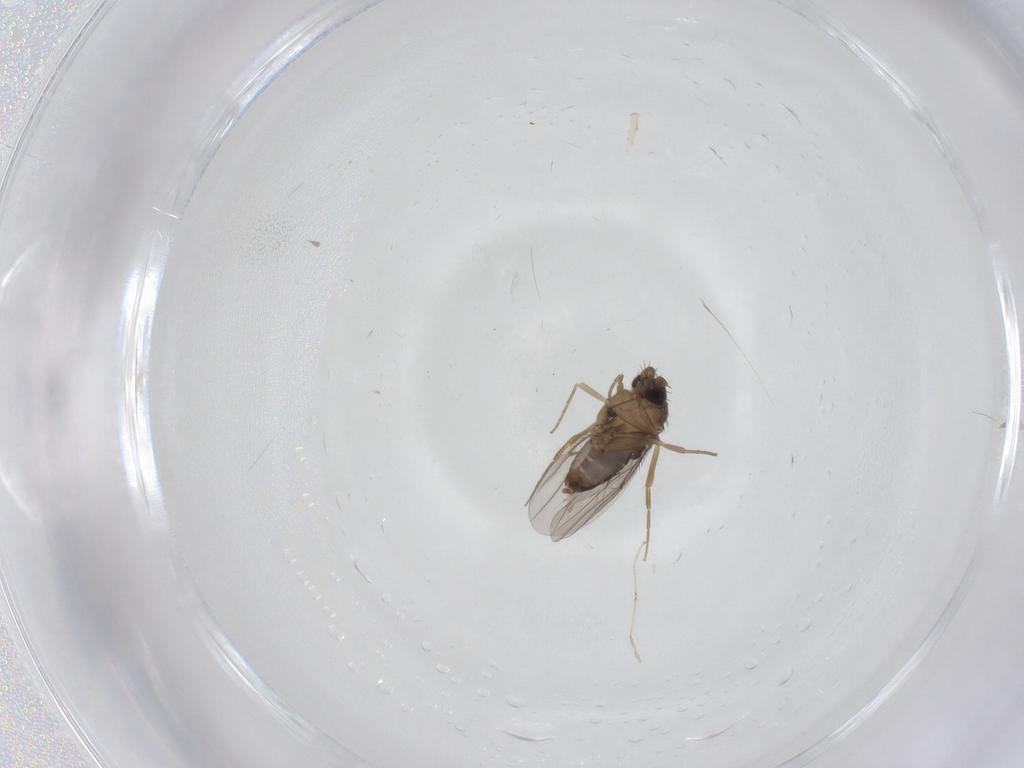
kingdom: Animalia
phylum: Arthropoda
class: Insecta
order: Diptera
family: Phoridae
